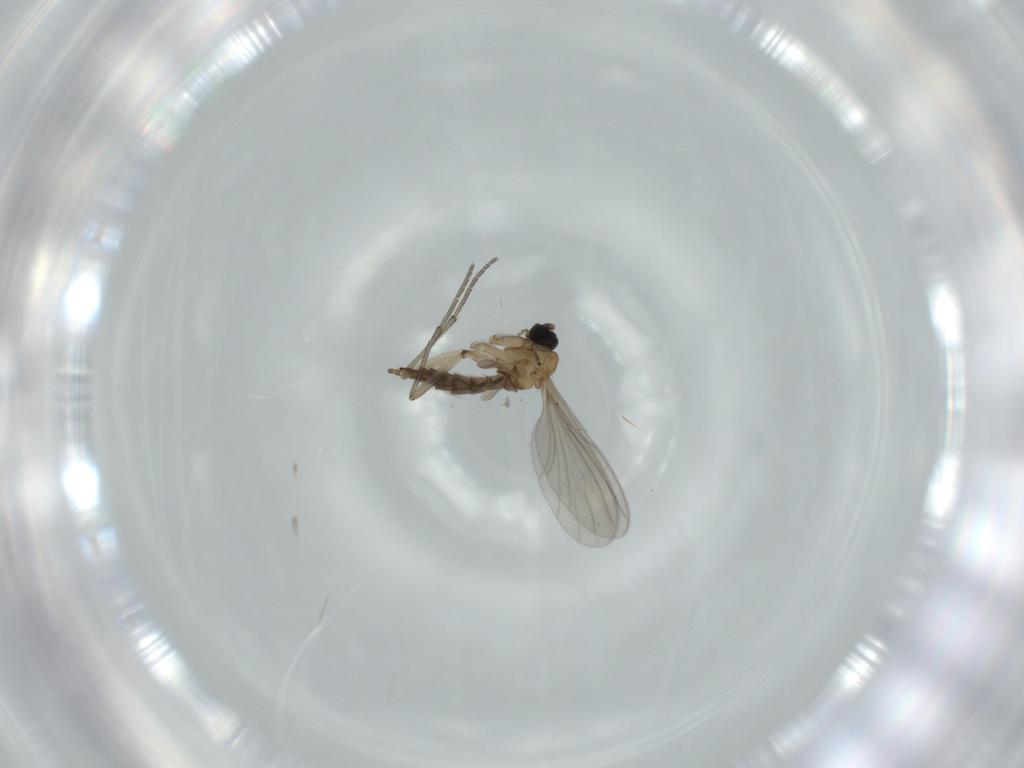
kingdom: Animalia
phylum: Arthropoda
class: Insecta
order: Diptera
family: Sciaridae
